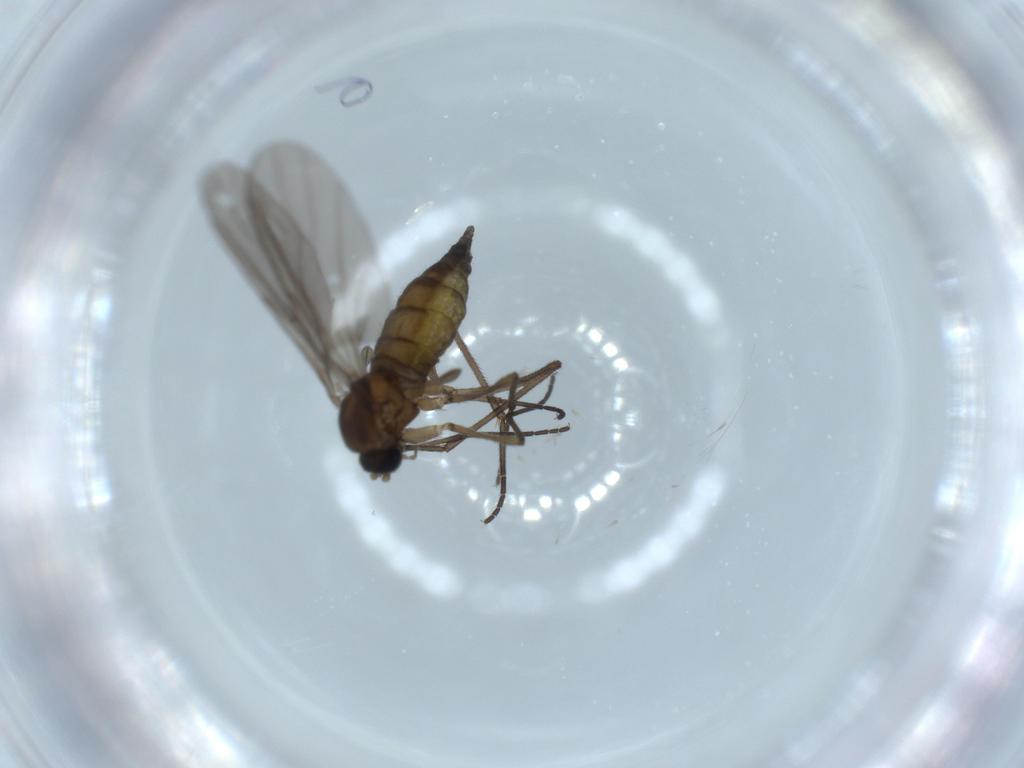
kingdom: Animalia
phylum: Arthropoda
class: Insecta
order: Diptera
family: Sciaridae
